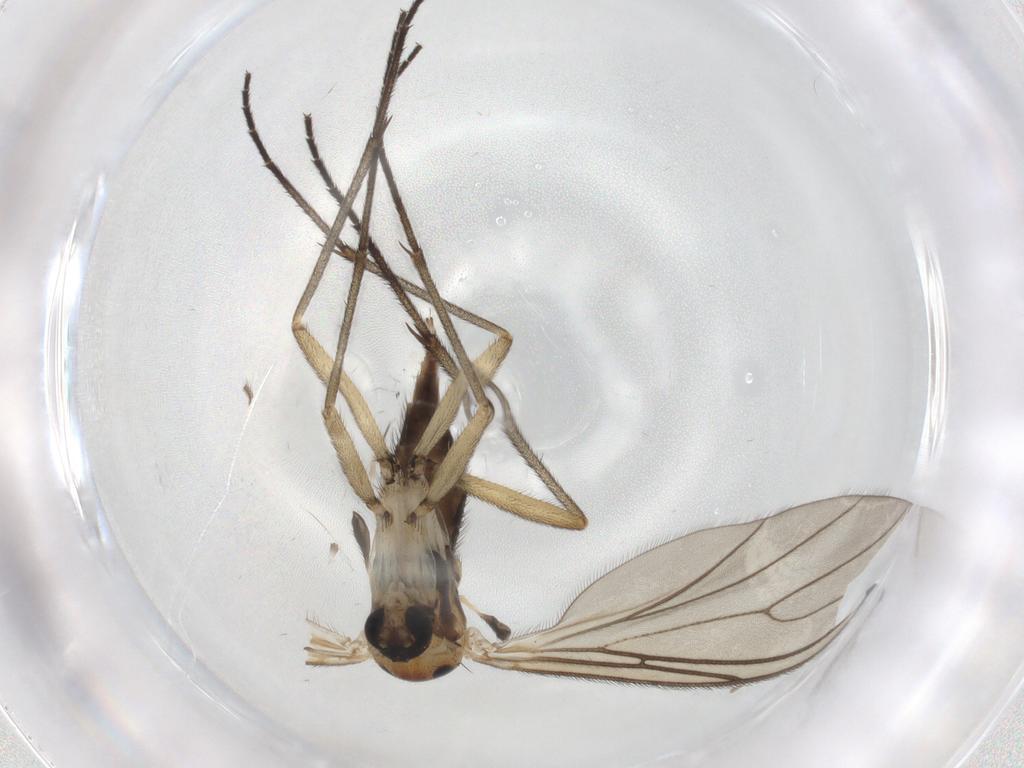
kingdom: Animalia
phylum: Arthropoda
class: Insecta
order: Diptera
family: Sciaridae
